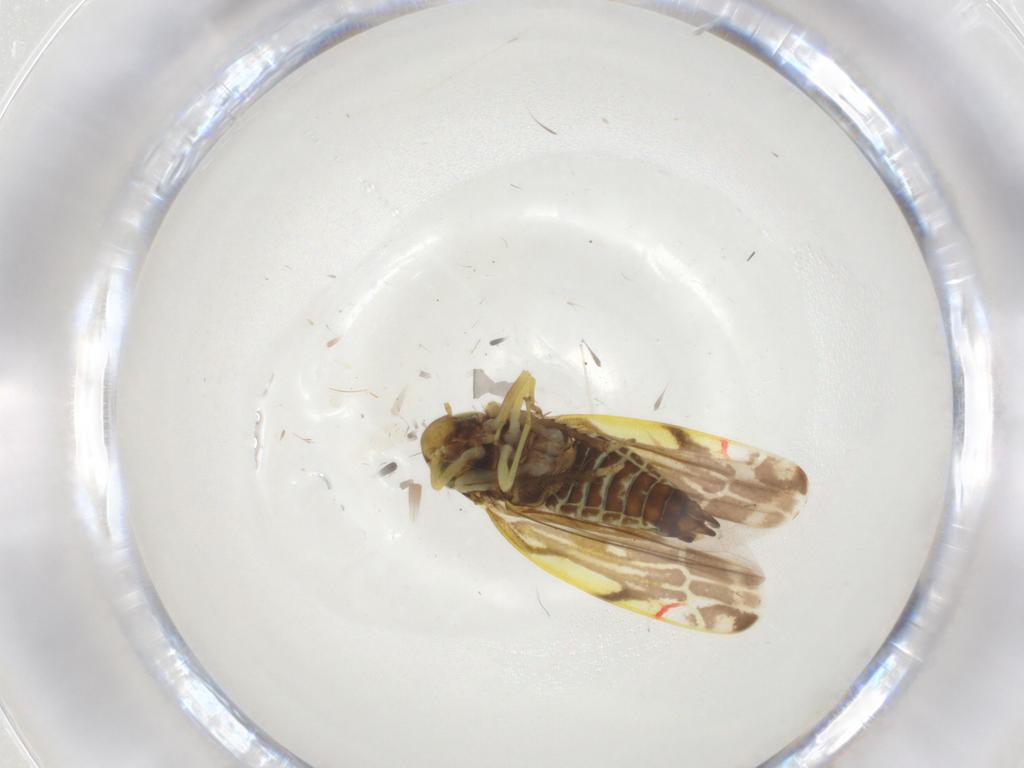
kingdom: Animalia
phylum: Arthropoda
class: Insecta
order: Hemiptera
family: Cicadellidae
